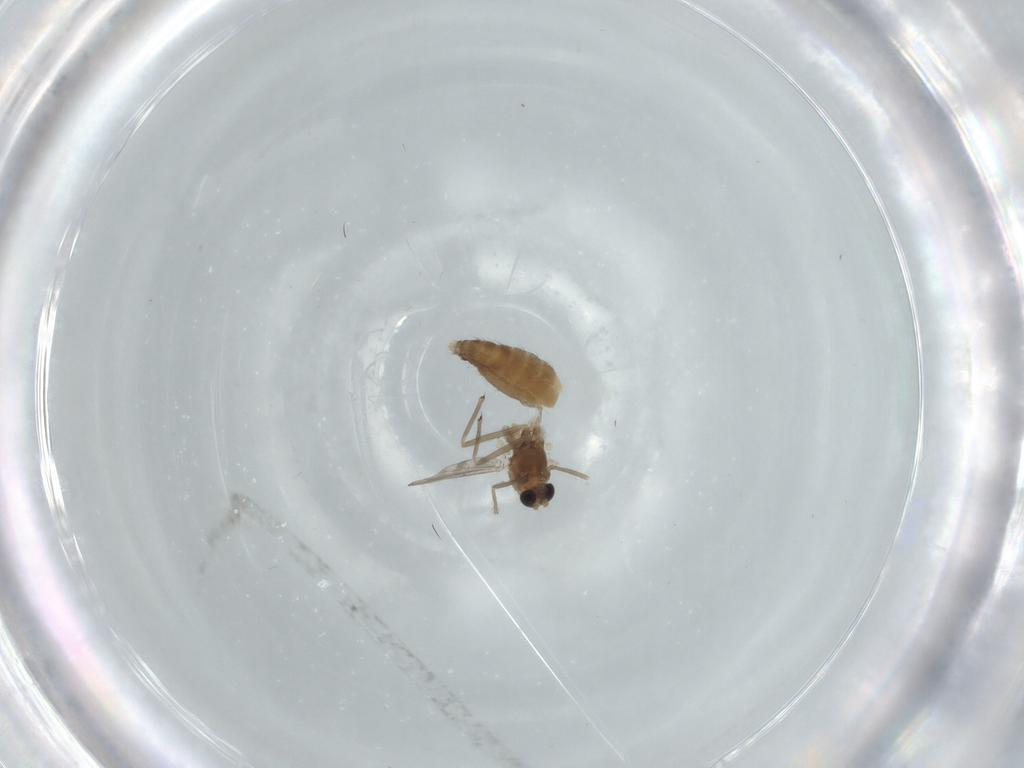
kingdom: Animalia
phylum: Arthropoda
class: Insecta
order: Diptera
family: Chironomidae
